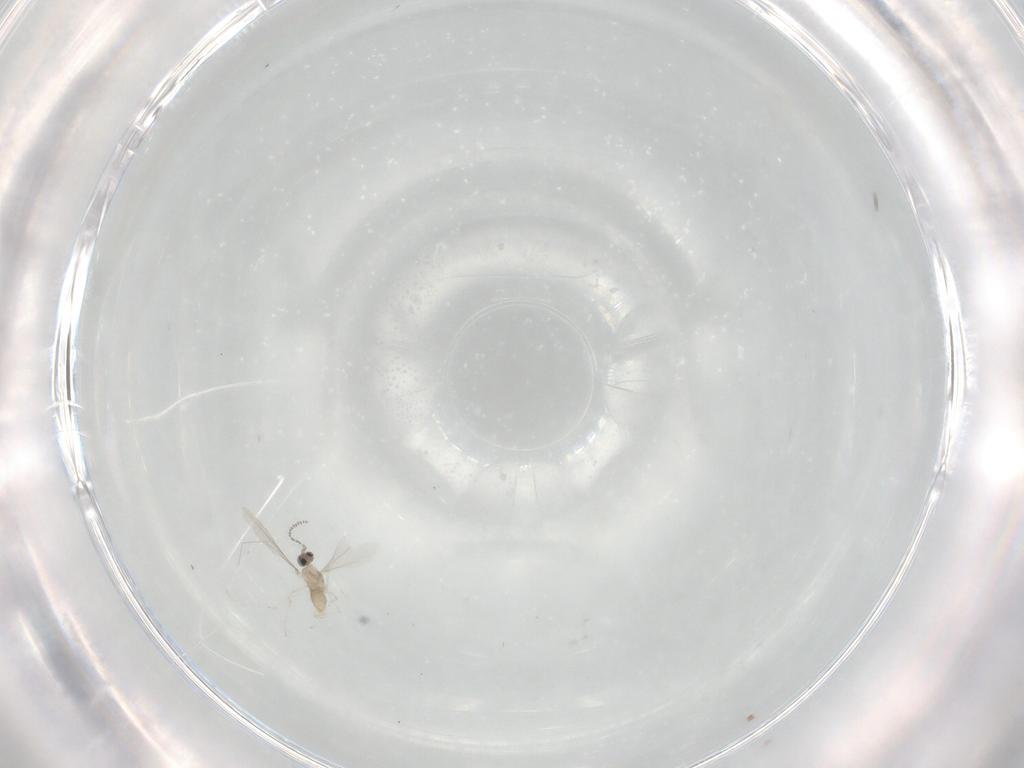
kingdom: Animalia
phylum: Arthropoda
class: Insecta
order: Diptera
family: Cecidomyiidae
